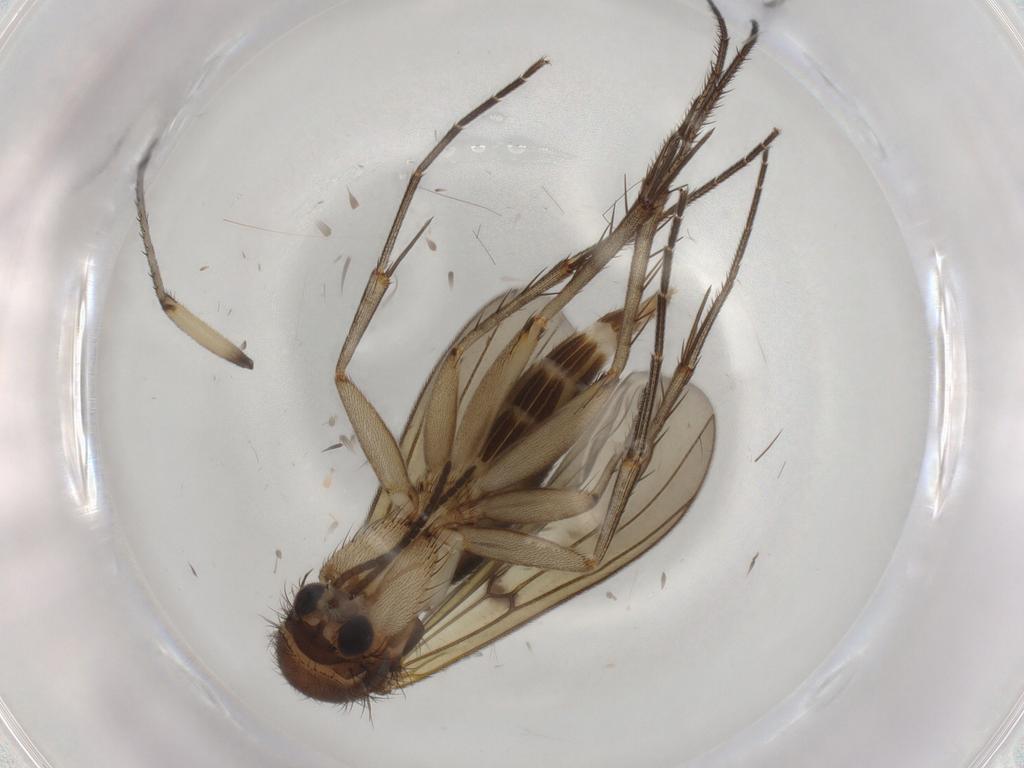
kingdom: Animalia
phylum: Arthropoda
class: Insecta
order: Diptera
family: Mycetophilidae
